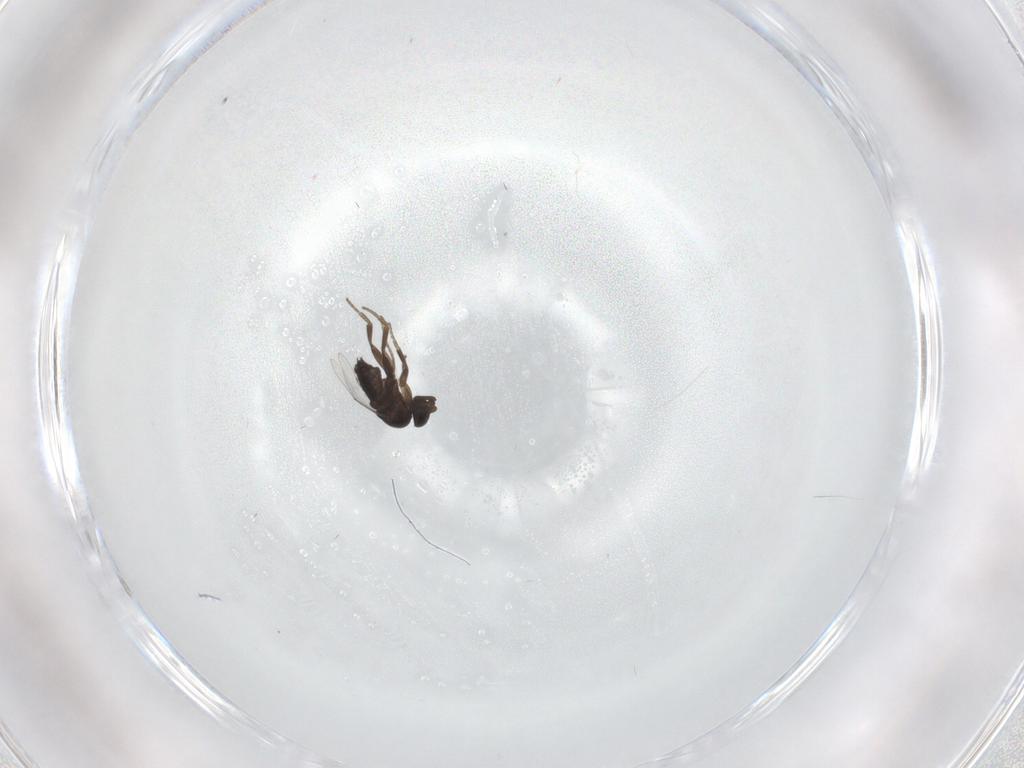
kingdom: Animalia
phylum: Arthropoda
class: Insecta
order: Diptera
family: Cecidomyiidae
